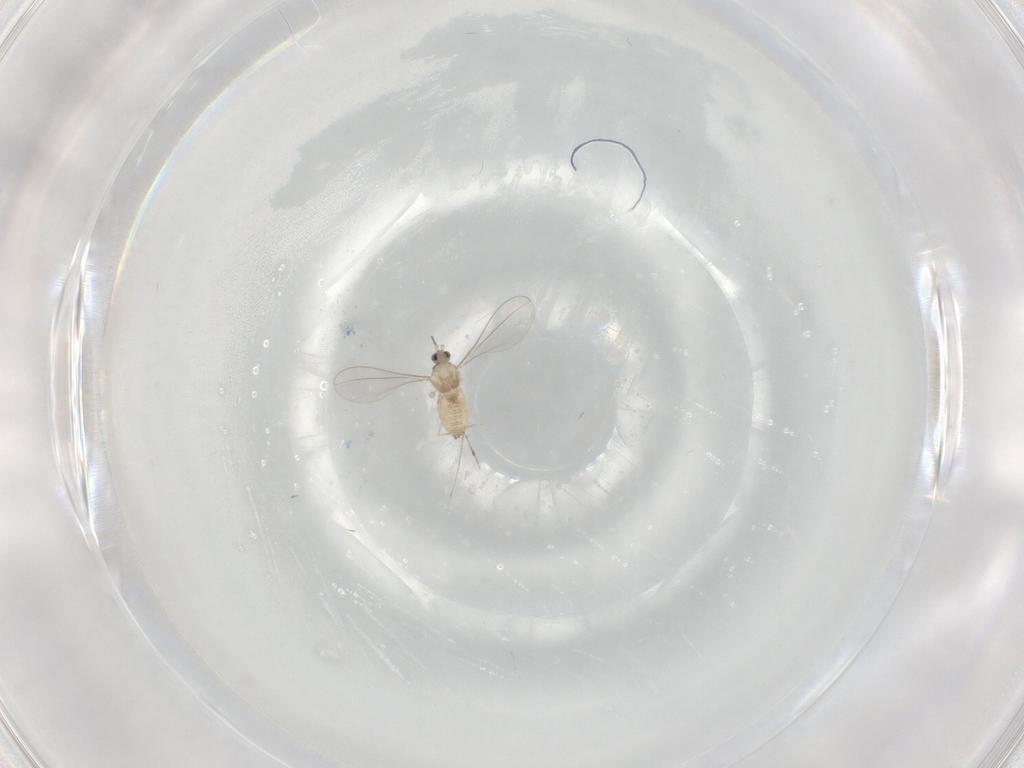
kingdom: Animalia
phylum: Arthropoda
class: Insecta
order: Diptera
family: Cecidomyiidae
